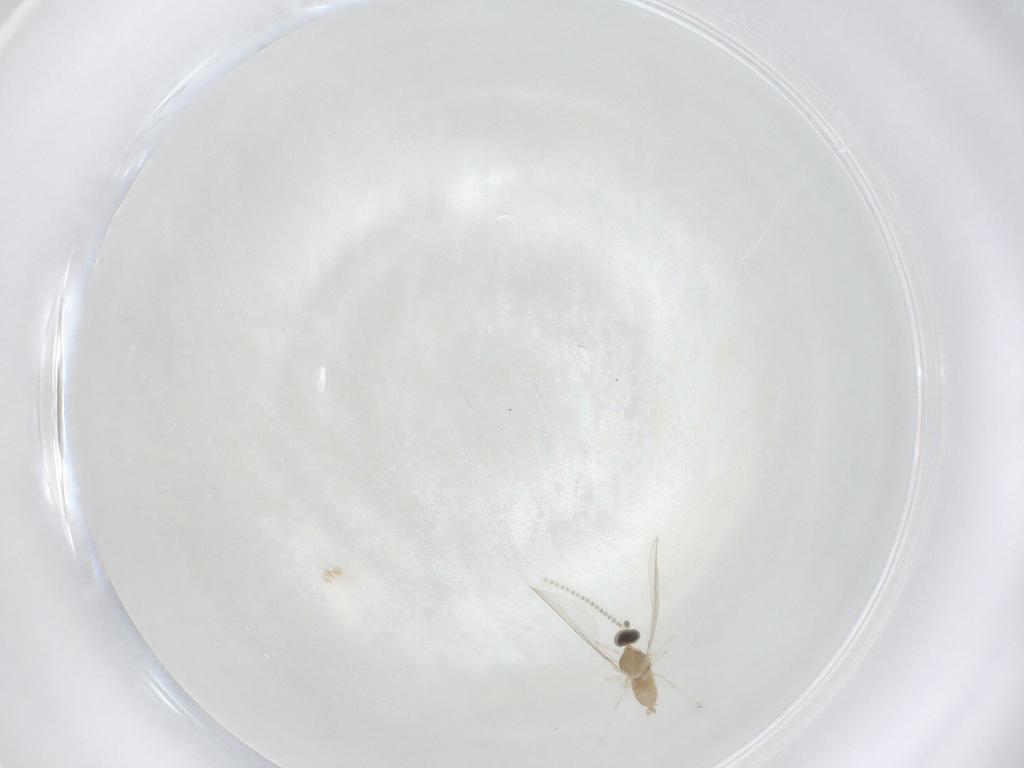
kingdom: Animalia
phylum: Arthropoda
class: Insecta
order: Diptera
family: Cecidomyiidae
